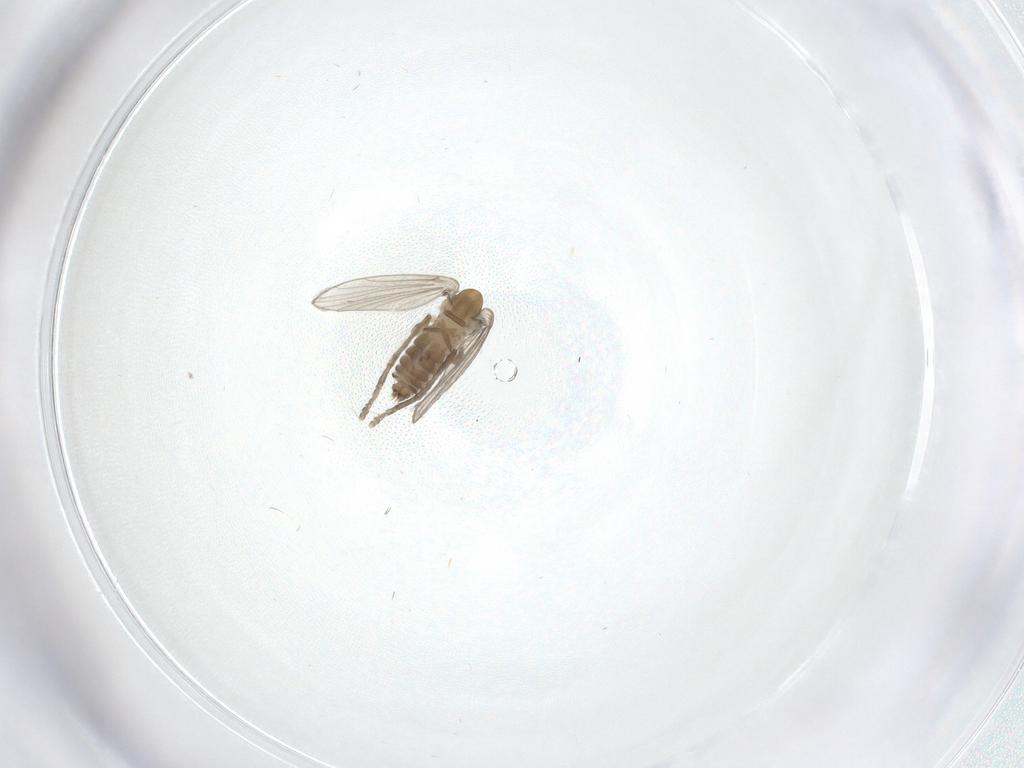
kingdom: Animalia
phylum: Arthropoda
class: Insecta
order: Diptera
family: Psychodidae
